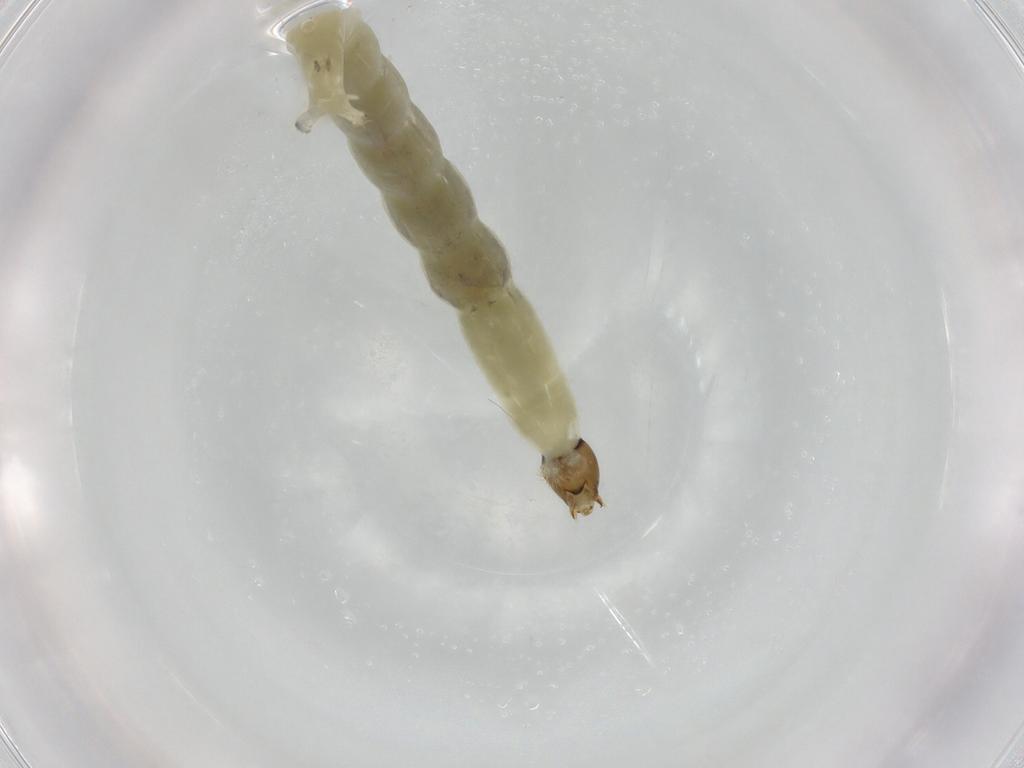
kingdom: Animalia
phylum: Arthropoda
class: Insecta
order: Diptera
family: Chironomidae
